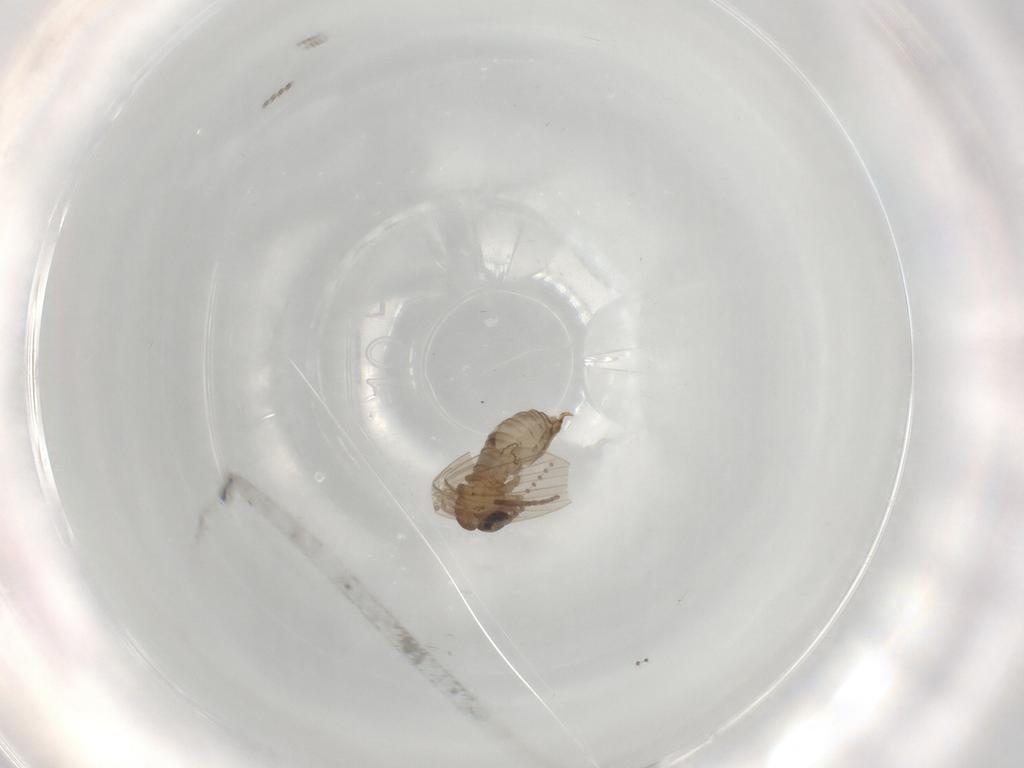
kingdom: Animalia
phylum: Arthropoda
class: Insecta
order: Diptera
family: Psychodidae
